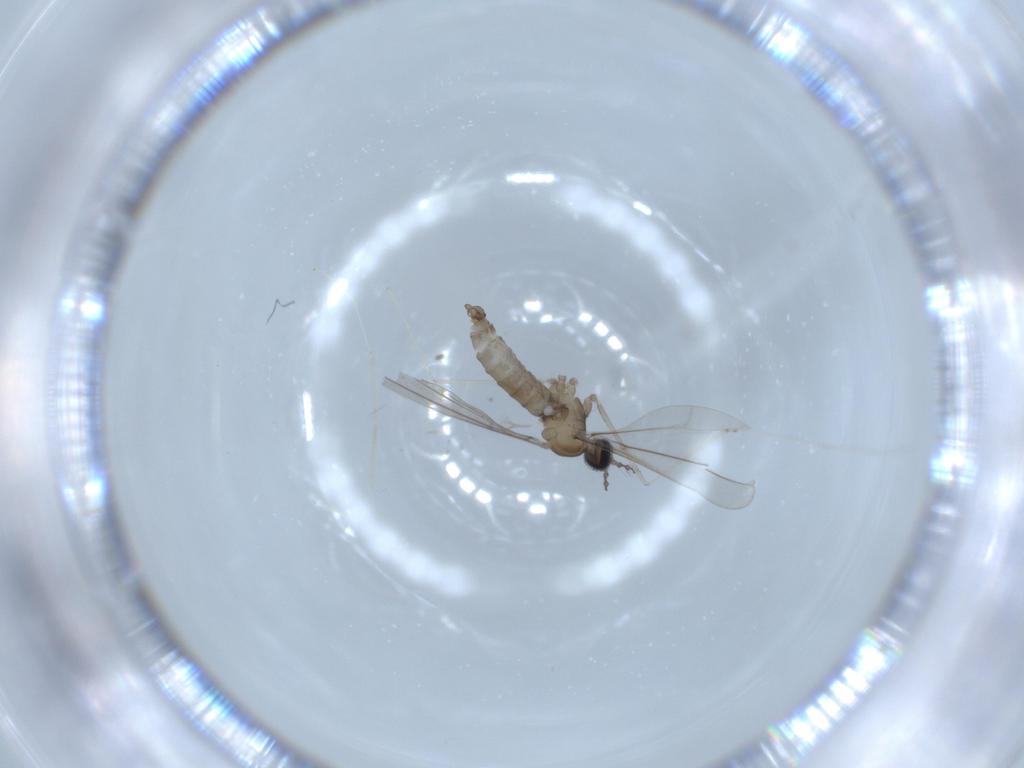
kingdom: Animalia
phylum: Arthropoda
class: Insecta
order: Diptera
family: Cecidomyiidae
